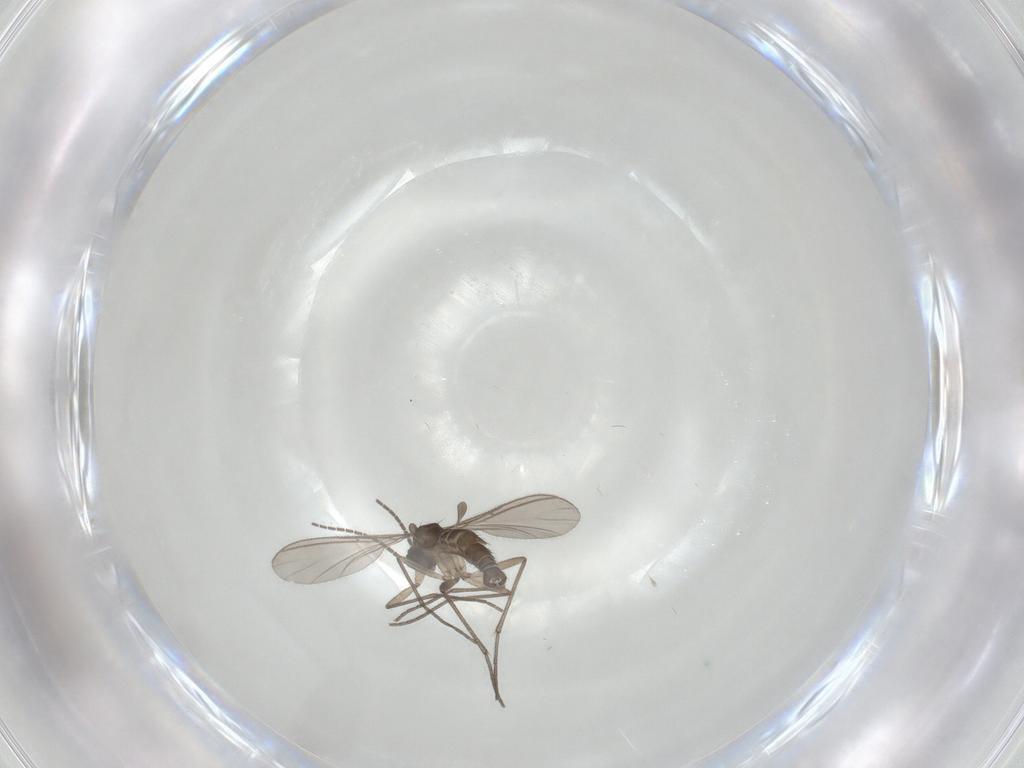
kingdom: Animalia
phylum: Arthropoda
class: Insecta
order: Diptera
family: Sciaridae
